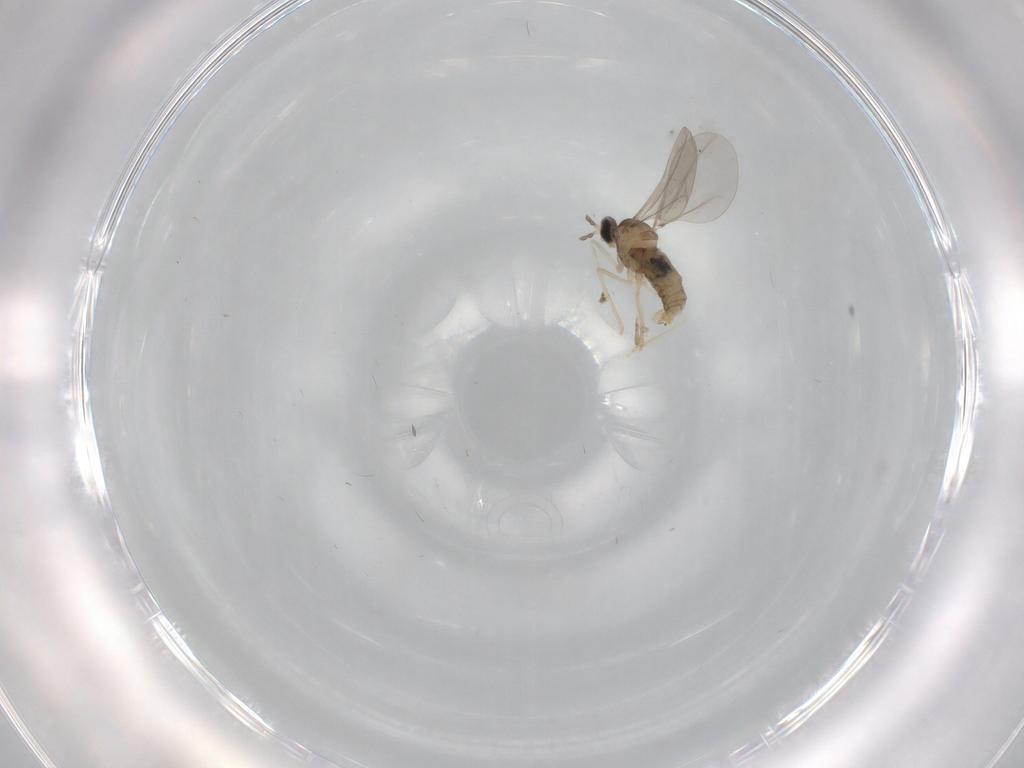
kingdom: Animalia
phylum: Arthropoda
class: Insecta
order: Diptera
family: Cecidomyiidae
